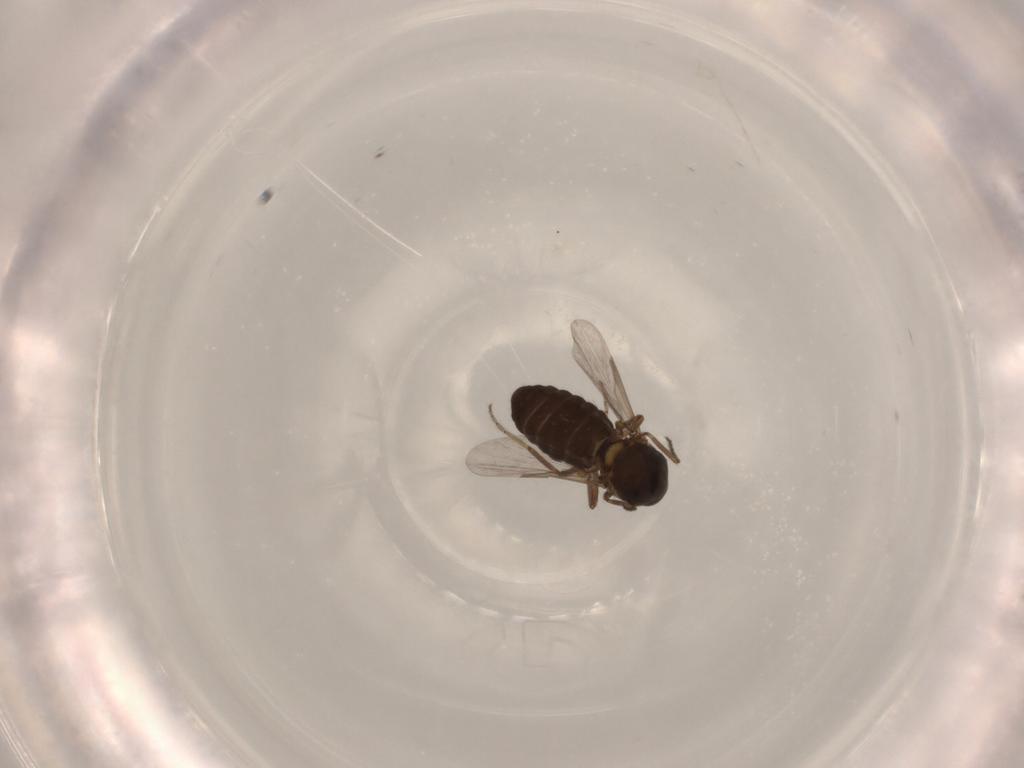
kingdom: Animalia
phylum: Arthropoda
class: Insecta
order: Diptera
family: Ceratopogonidae
